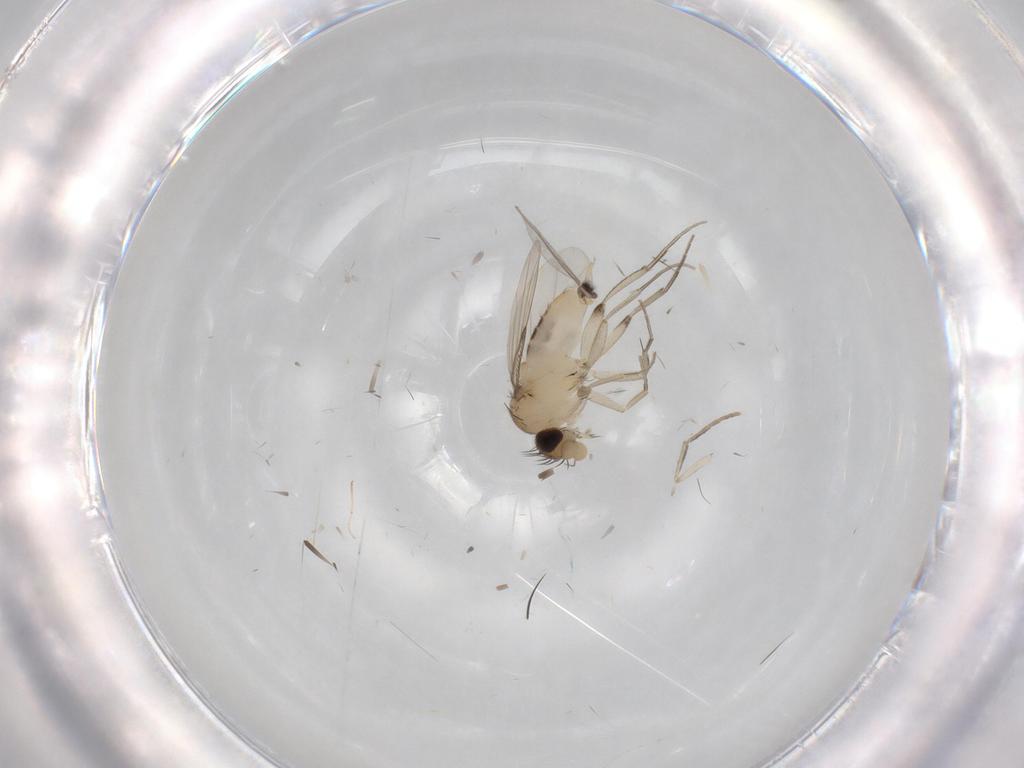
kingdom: Animalia
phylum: Arthropoda
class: Insecta
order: Diptera
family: Phoridae
